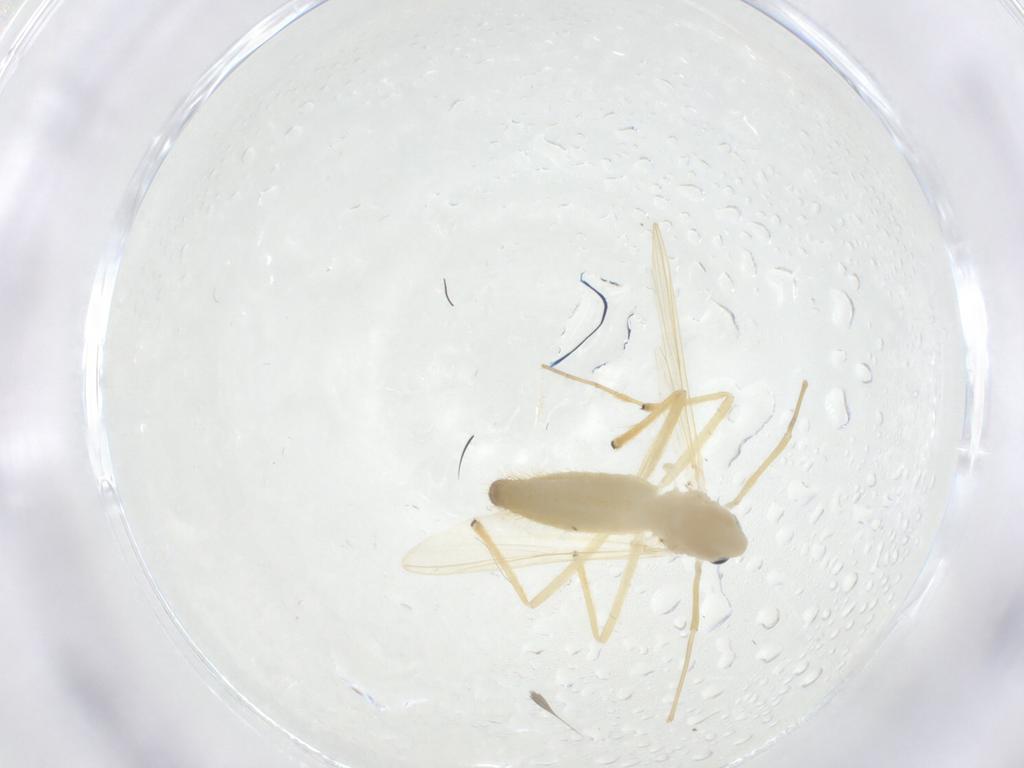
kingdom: Animalia
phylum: Arthropoda
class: Insecta
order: Diptera
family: Chironomidae
